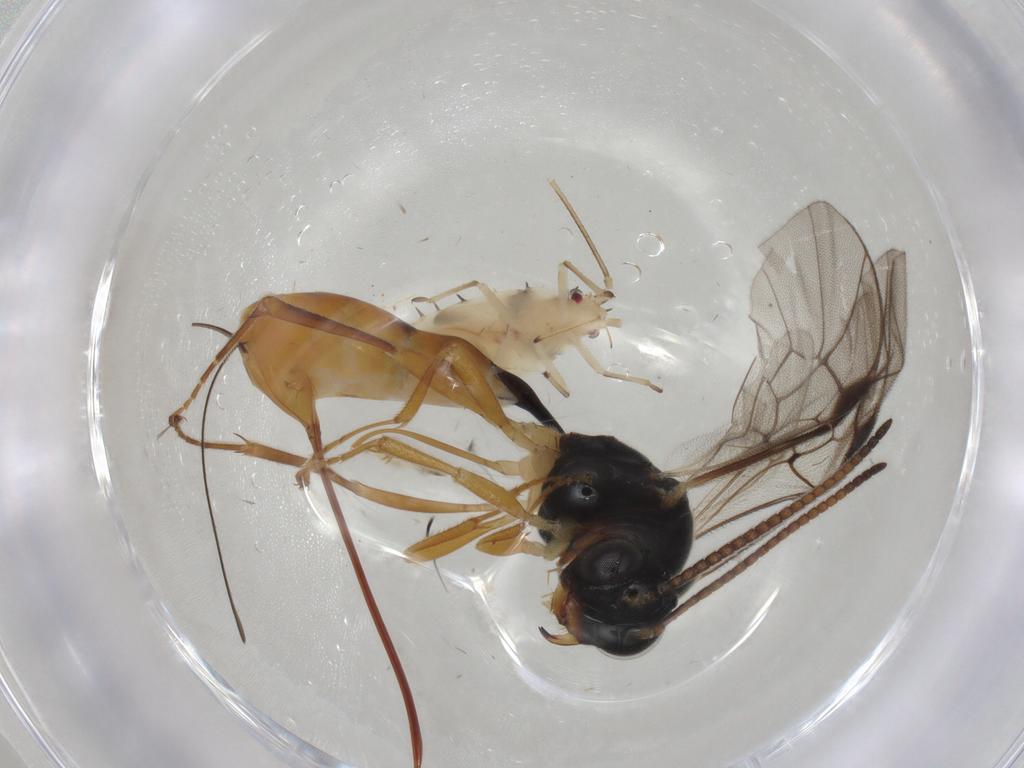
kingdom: Animalia
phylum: Arthropoda
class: Insecta
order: Hymenoptera
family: Ichneumonidae
